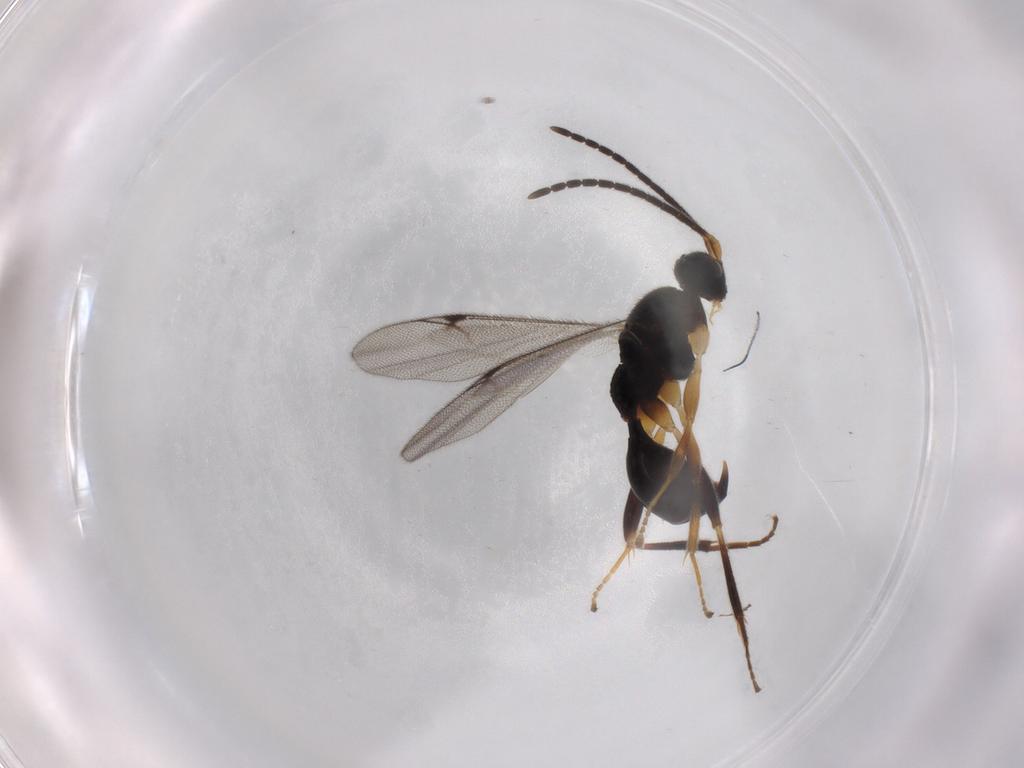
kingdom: Animalia
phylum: Arthropoda
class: Insecta
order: Hymenoptera
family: Proctotrupidae
